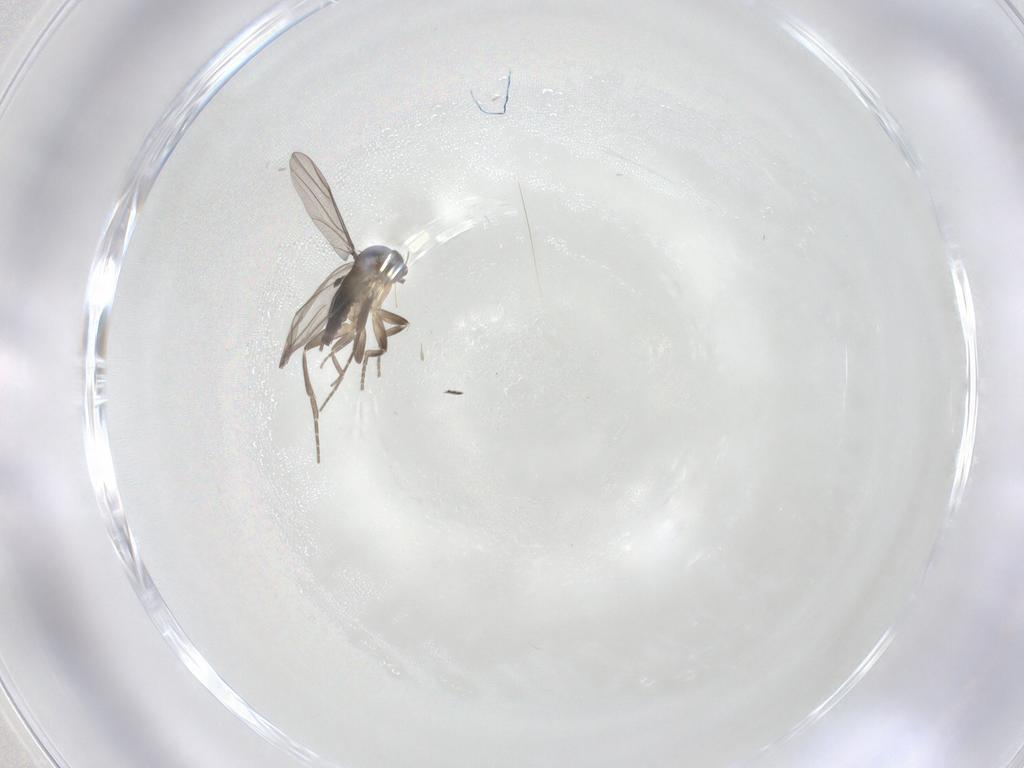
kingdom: Animalia
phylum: Arthropoda
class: Insecta
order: Diptera
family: Phoridae
